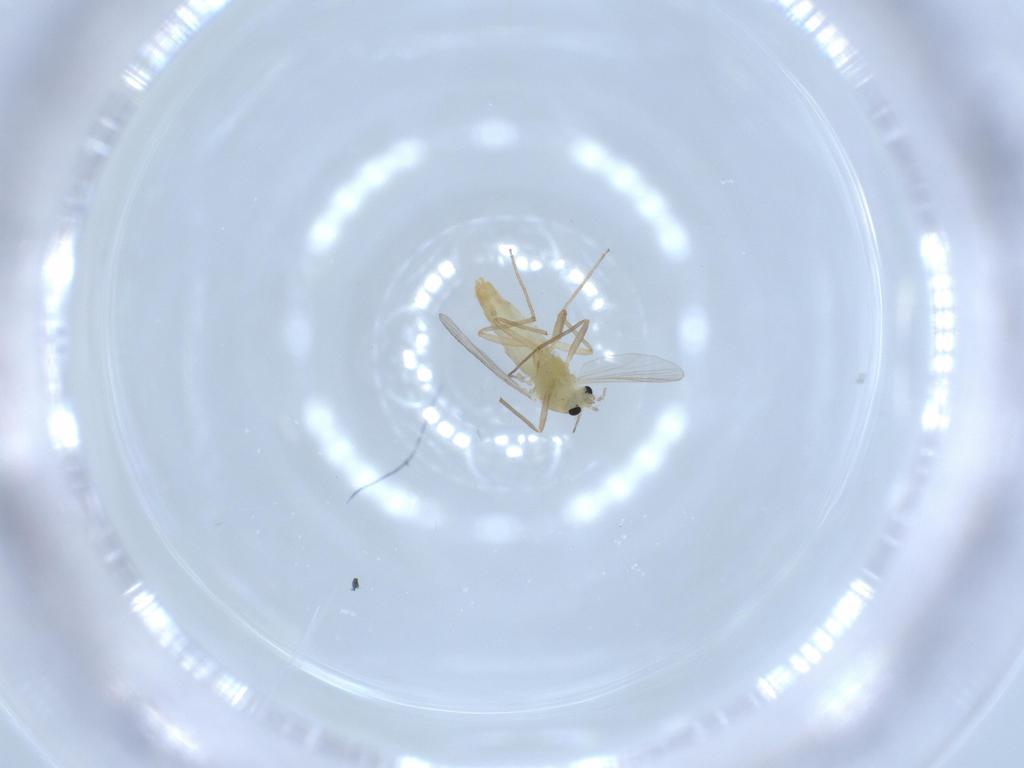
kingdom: Animalia
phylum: Arthropoda
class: Insecta
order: Diptera
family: Chironomidae
